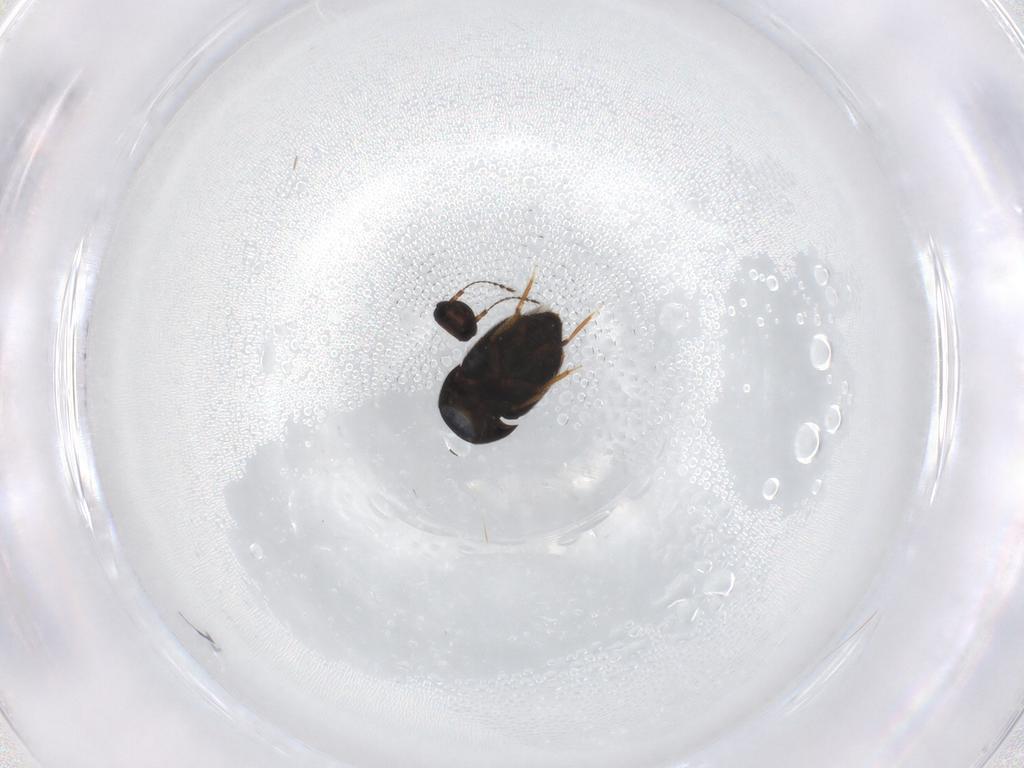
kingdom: Animalia
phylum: Arthropoda
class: Insecta
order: Coleoptera
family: Ptiliidae
